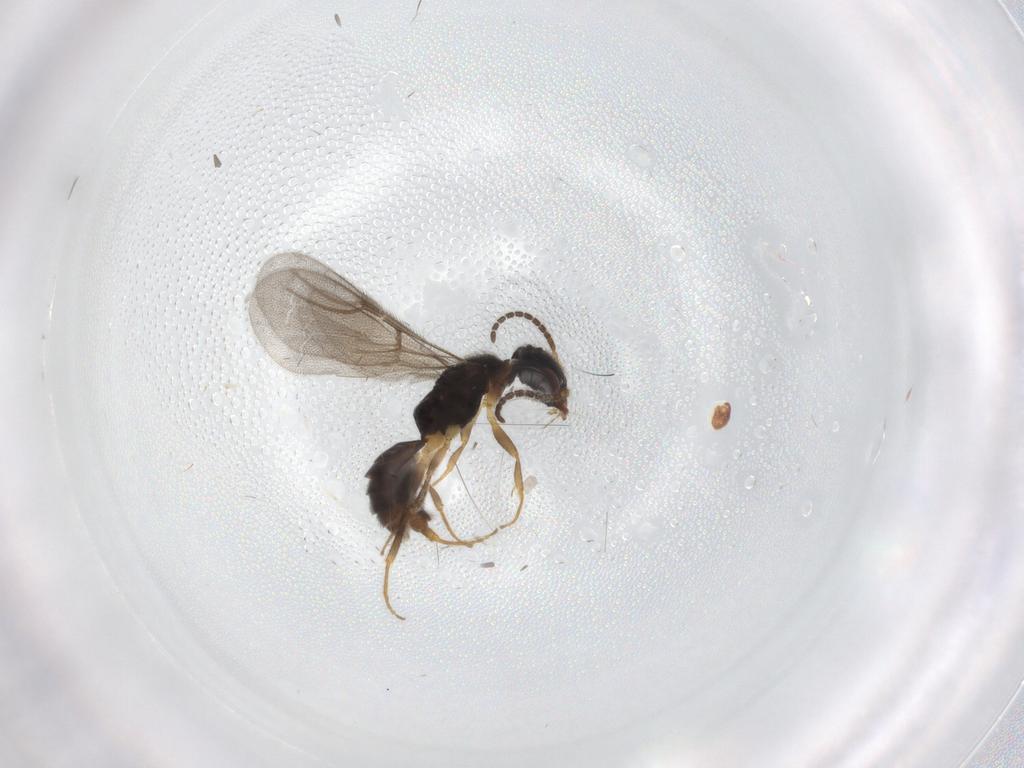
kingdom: Animalia
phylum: Arthropoda
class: Insecta
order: Hymenoptera
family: Bethylidae
